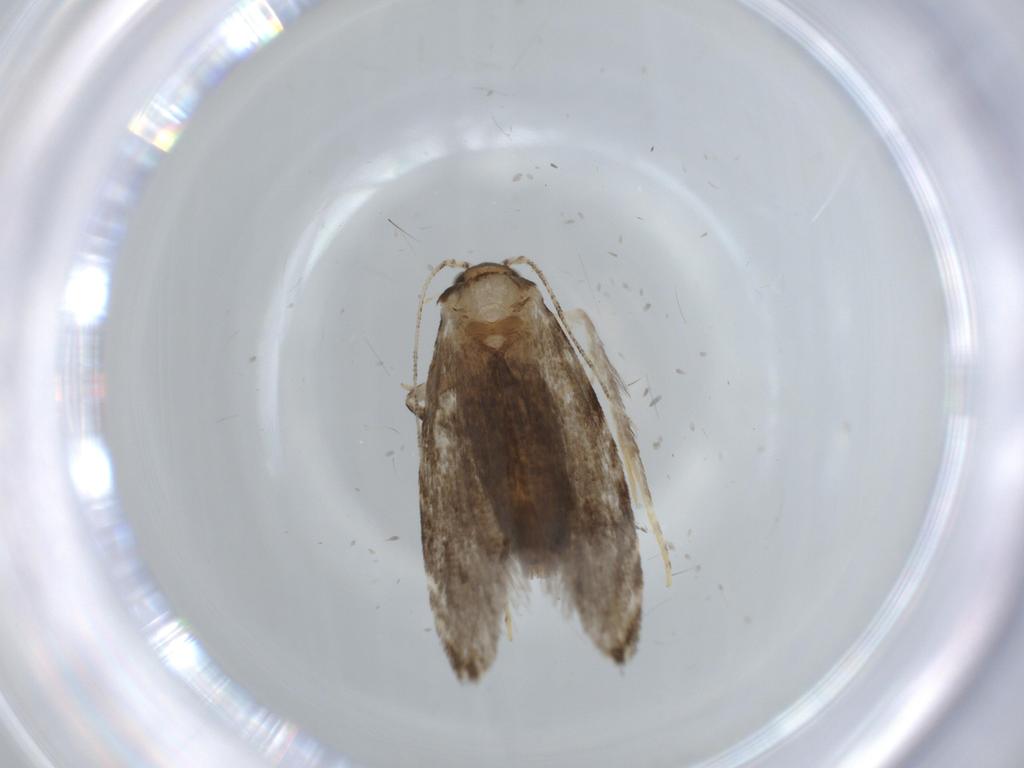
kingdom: Animalia
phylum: Arthropoda
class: Insecta
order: Lepidoptera
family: Tineidae
